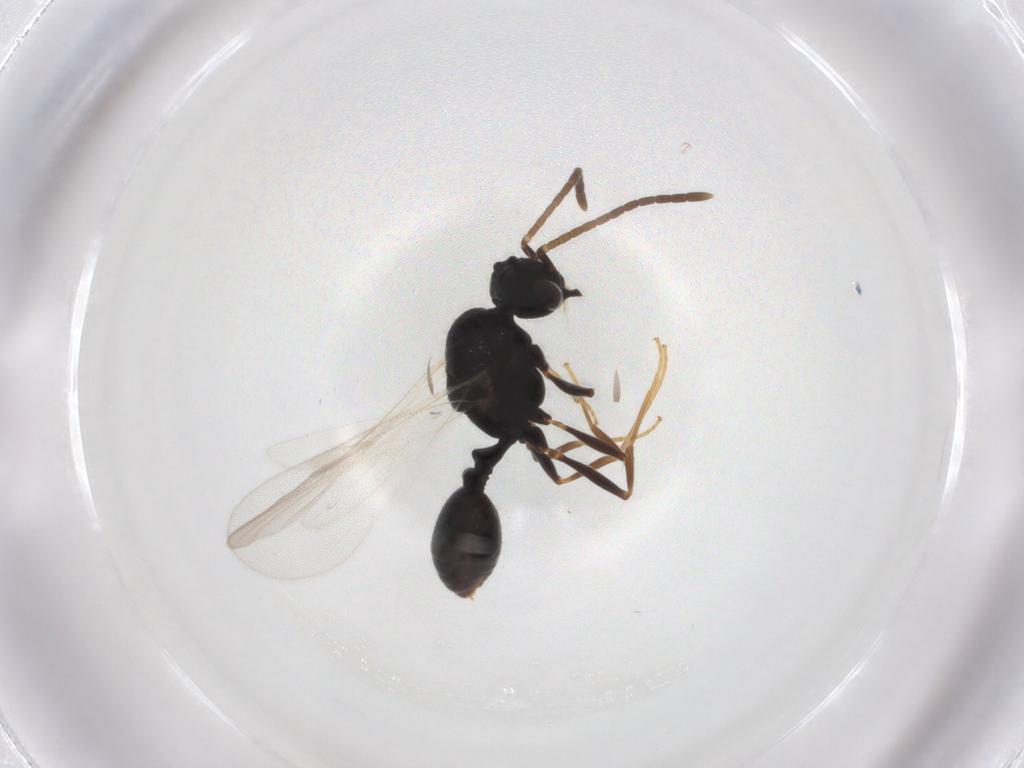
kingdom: Animalia
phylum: Arthropoda
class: Insecta
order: Hymenoptera
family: Formicidae
